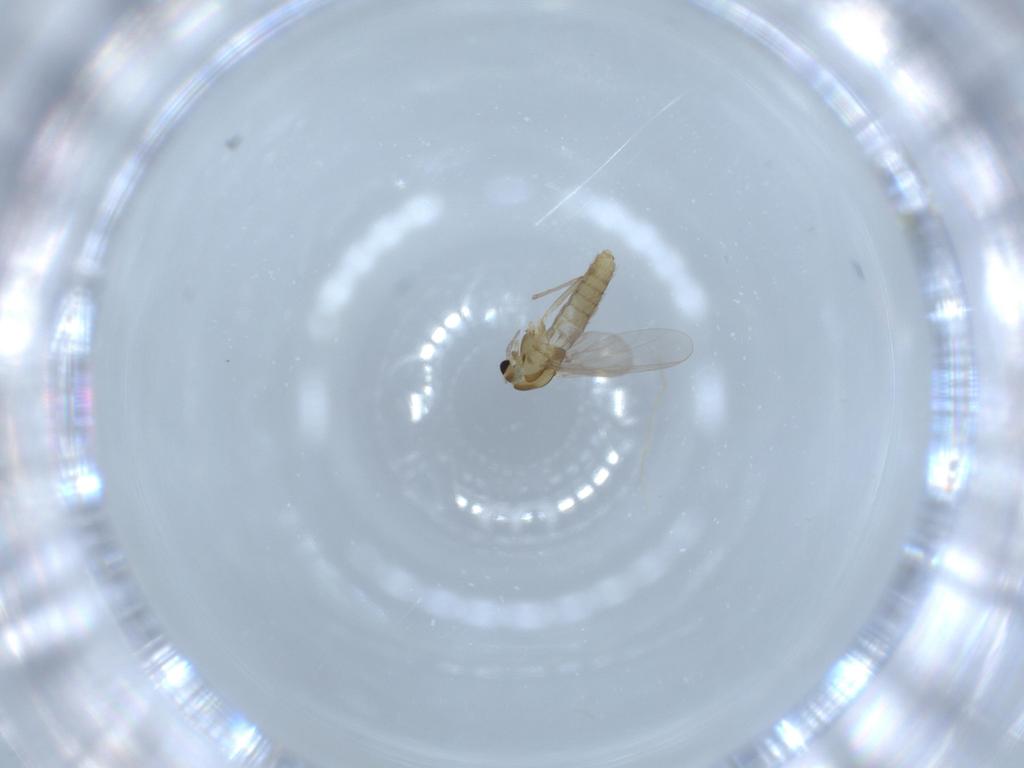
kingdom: Animalia
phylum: Arthropoda
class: Insecta
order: Diptera
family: Chironomidae
